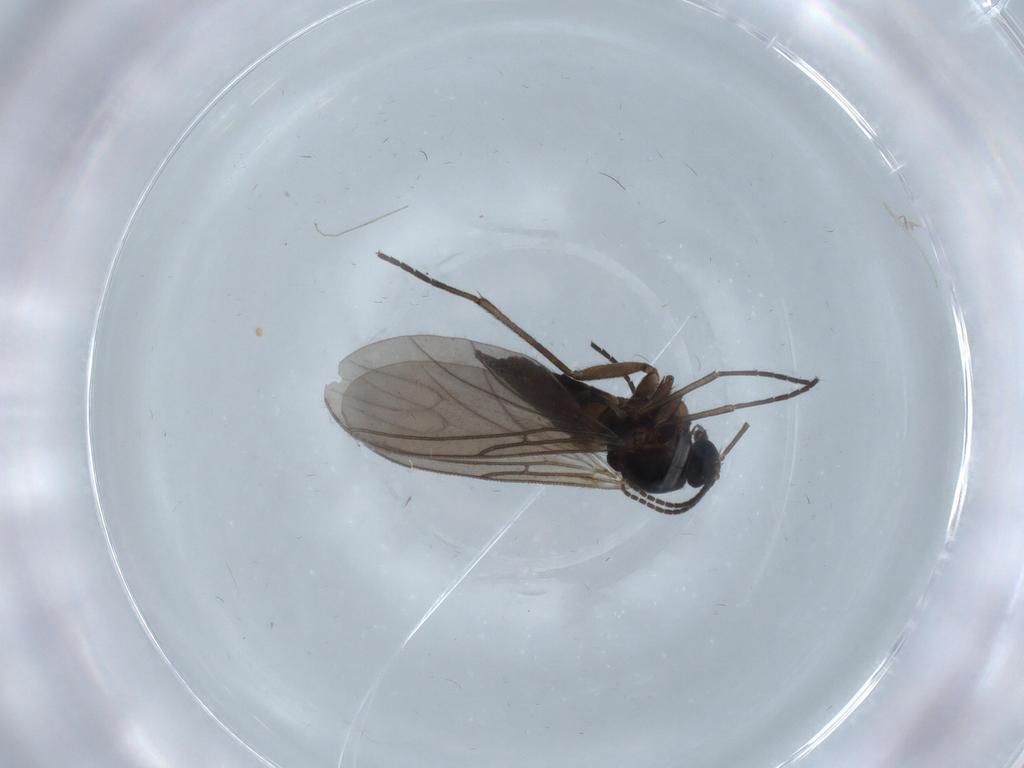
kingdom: Animalia
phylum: Arthropoda
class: Insecta
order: Diptera
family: Sciaridae
